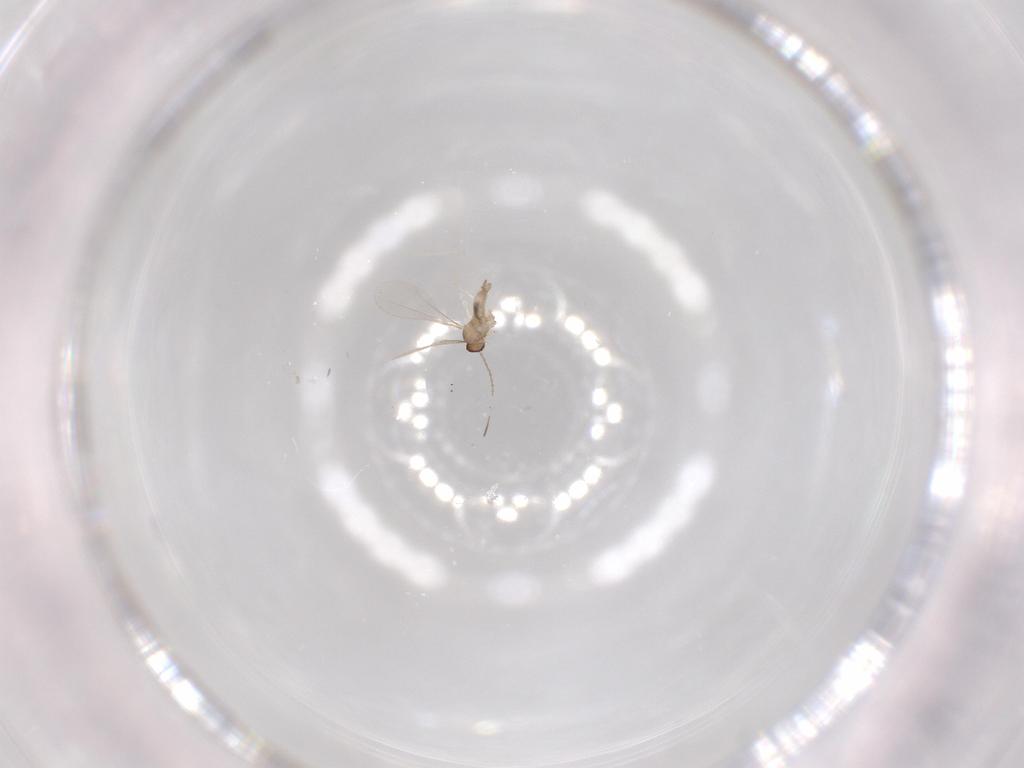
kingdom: Animalia
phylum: Arthropoda
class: Insecta
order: Diptera
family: Cecidomyiidae
